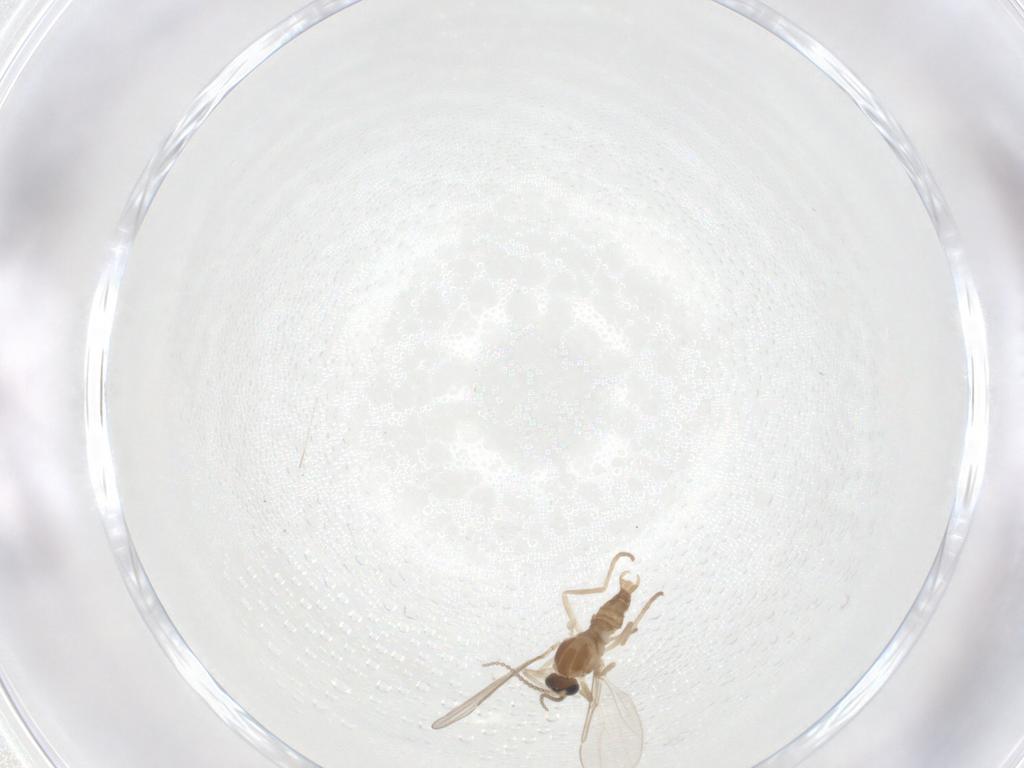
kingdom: Animalia
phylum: Arthropoda
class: Insecta
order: Diptera
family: Cecidomyiidae
